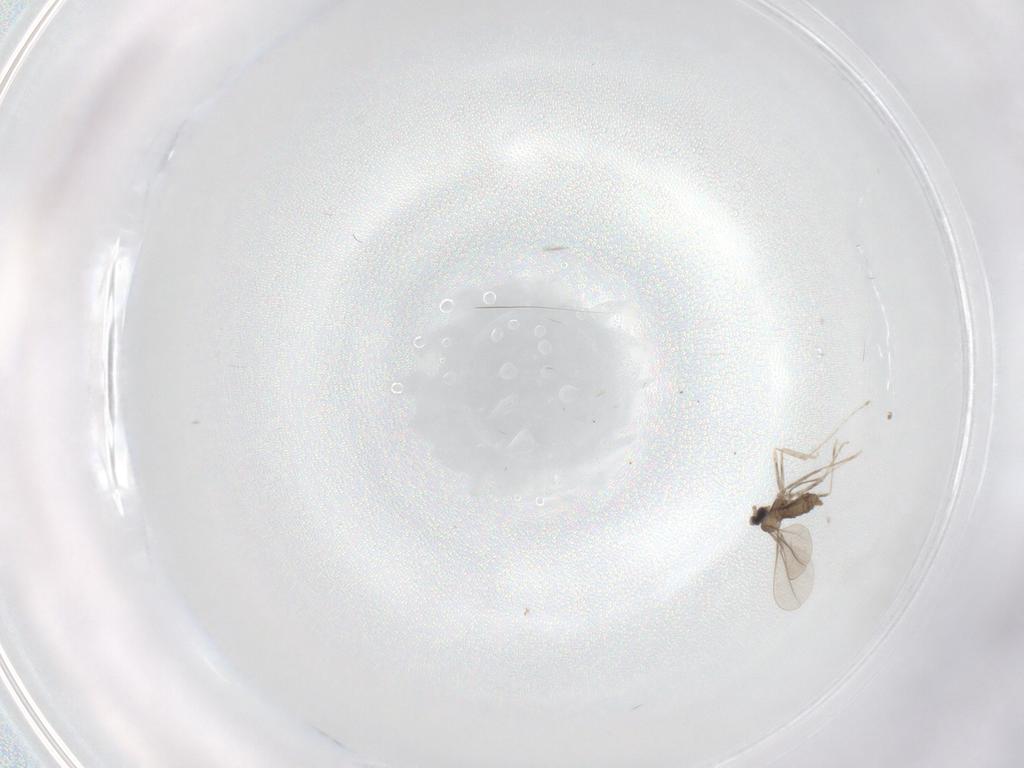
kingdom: Animalia
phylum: Arthropoda
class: Insecta
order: Diptera
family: Cecidomyiidae
